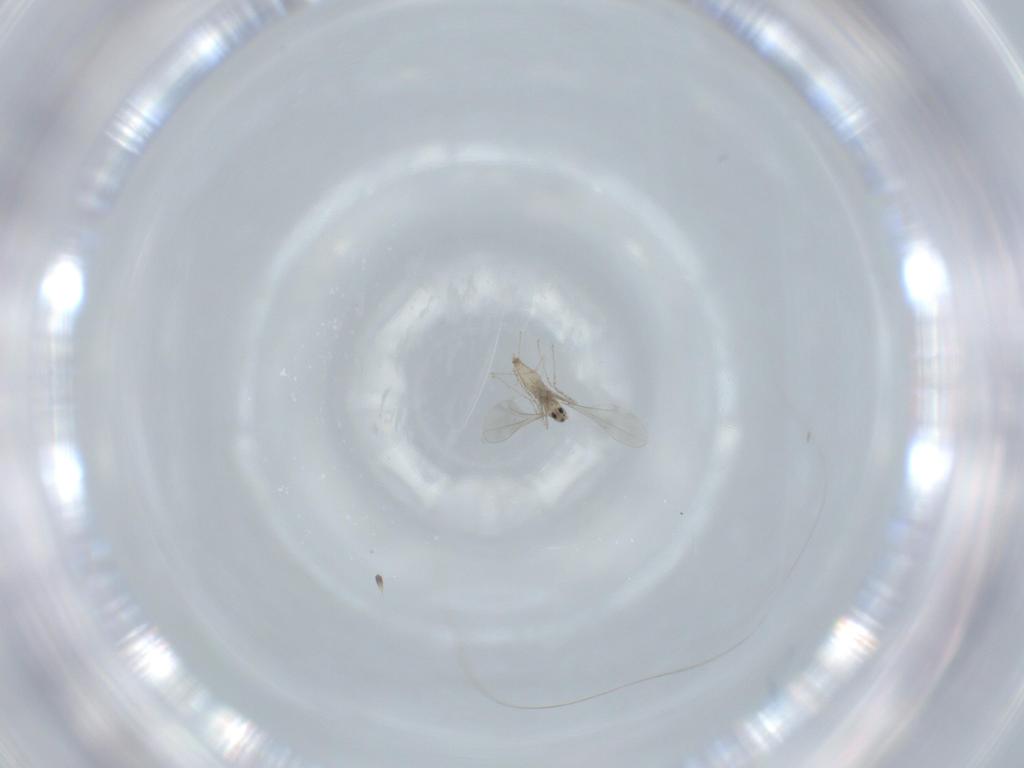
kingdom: Animalia
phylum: Arthropoda
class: Insecta
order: Diptera
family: Cecidomyiidae
